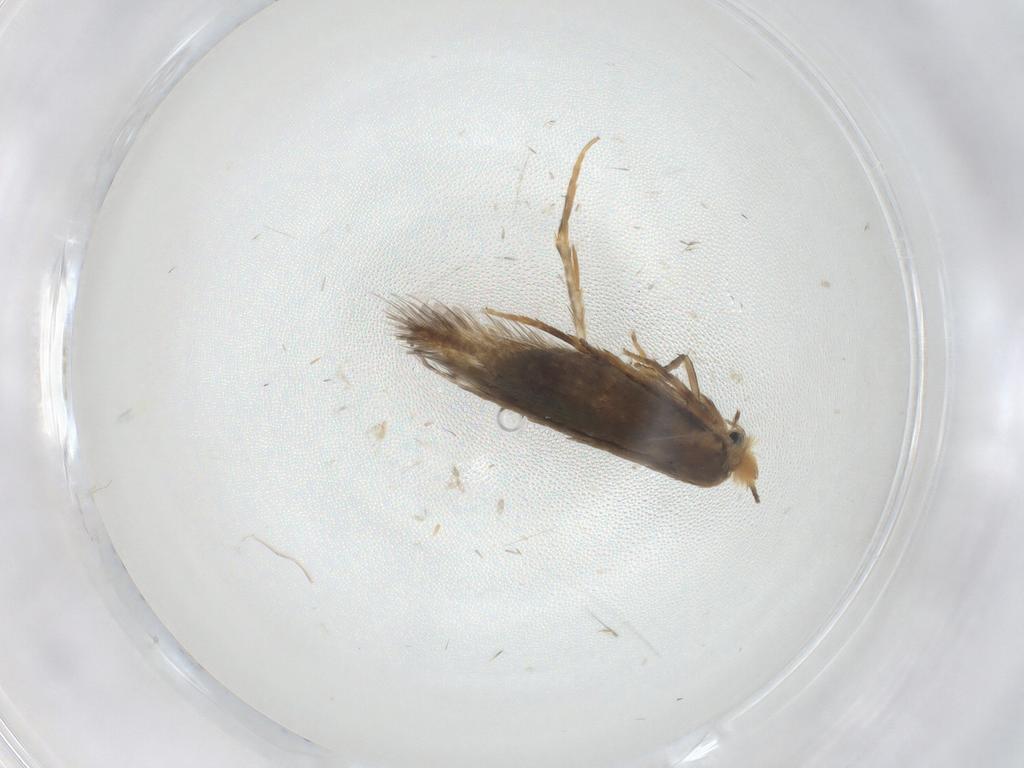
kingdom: Animalia
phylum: Arthropoda
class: Insecta
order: Lepidoptera
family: Nepticulidae
